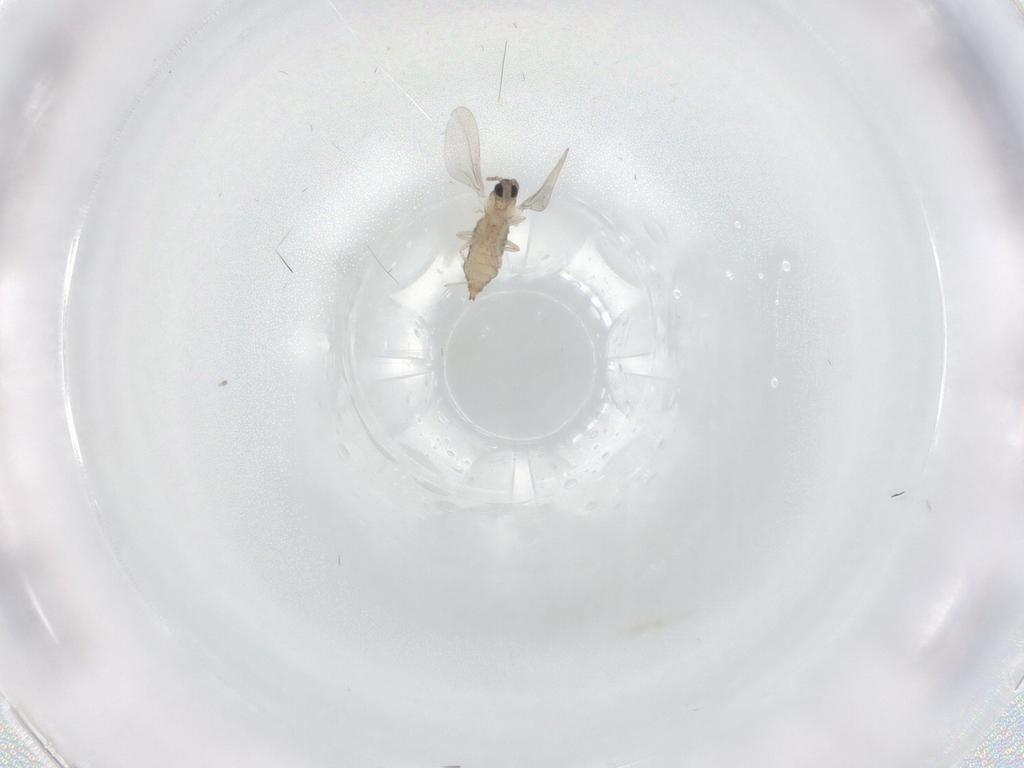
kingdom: Animalia
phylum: Arthropoda
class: Insecta
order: Diptera
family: Cecidomyiidae
